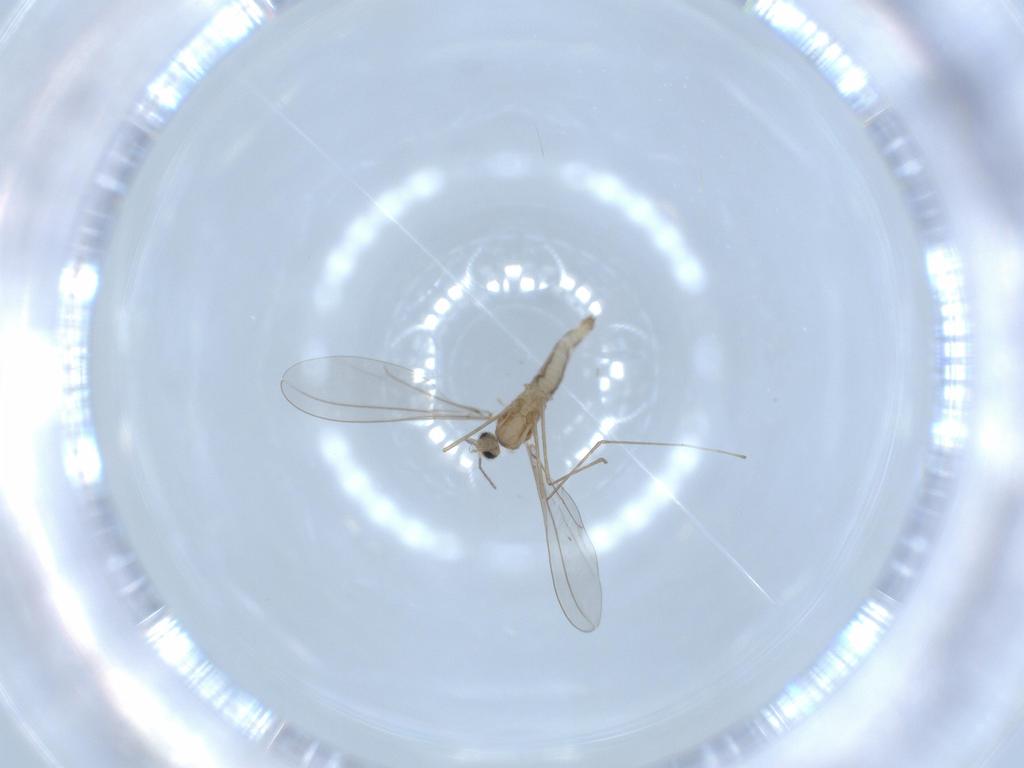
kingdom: Animalia
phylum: Arthropoda
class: Insecta
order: Diptera
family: Cecidomyiidae
